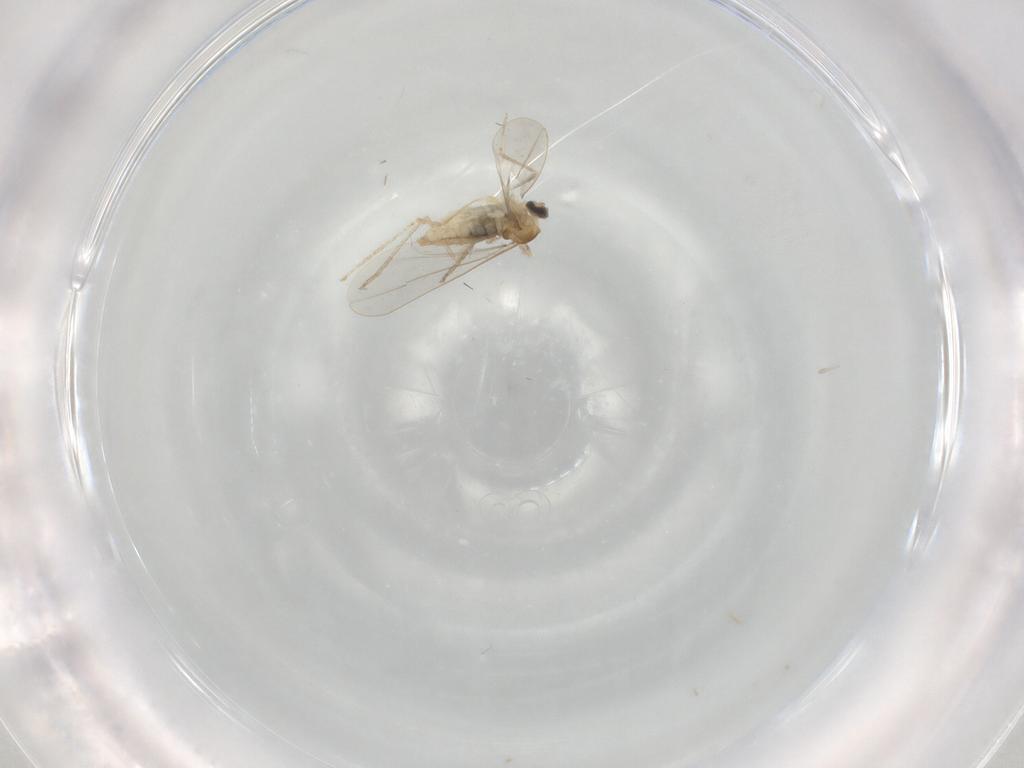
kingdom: Animalia
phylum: Arthropoda
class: Insecta
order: Diptera
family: Cecidomyiidae
